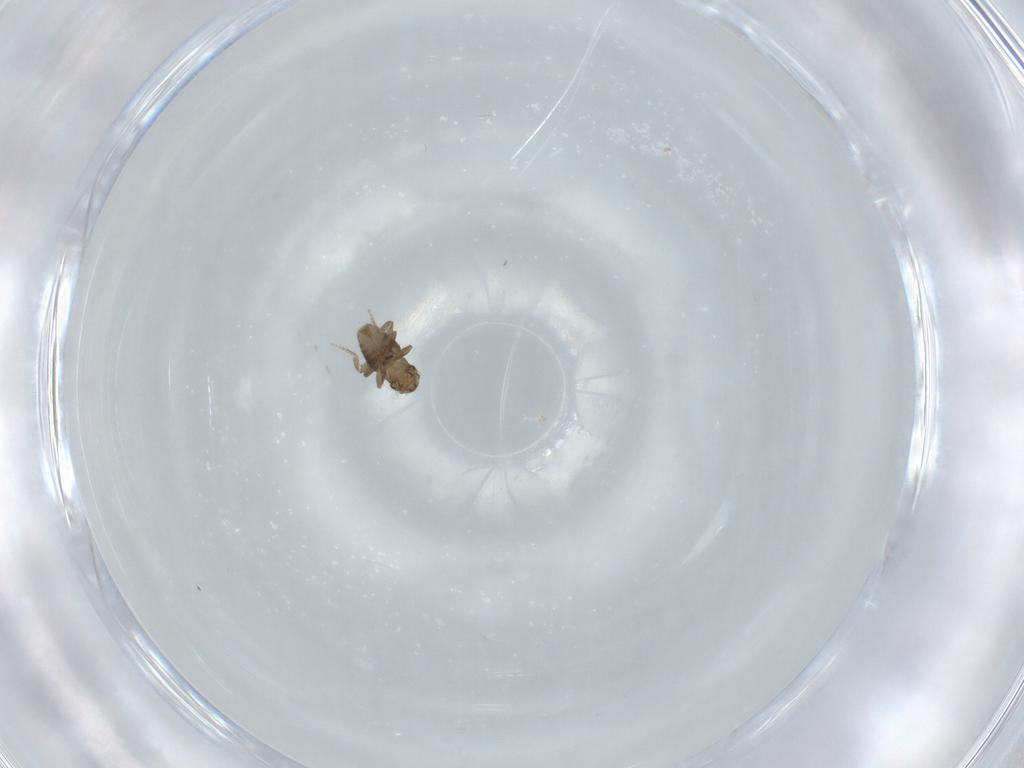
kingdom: Animalia
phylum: Arthropoda
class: Insecta
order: Diptera
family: Cecidomyiidae
